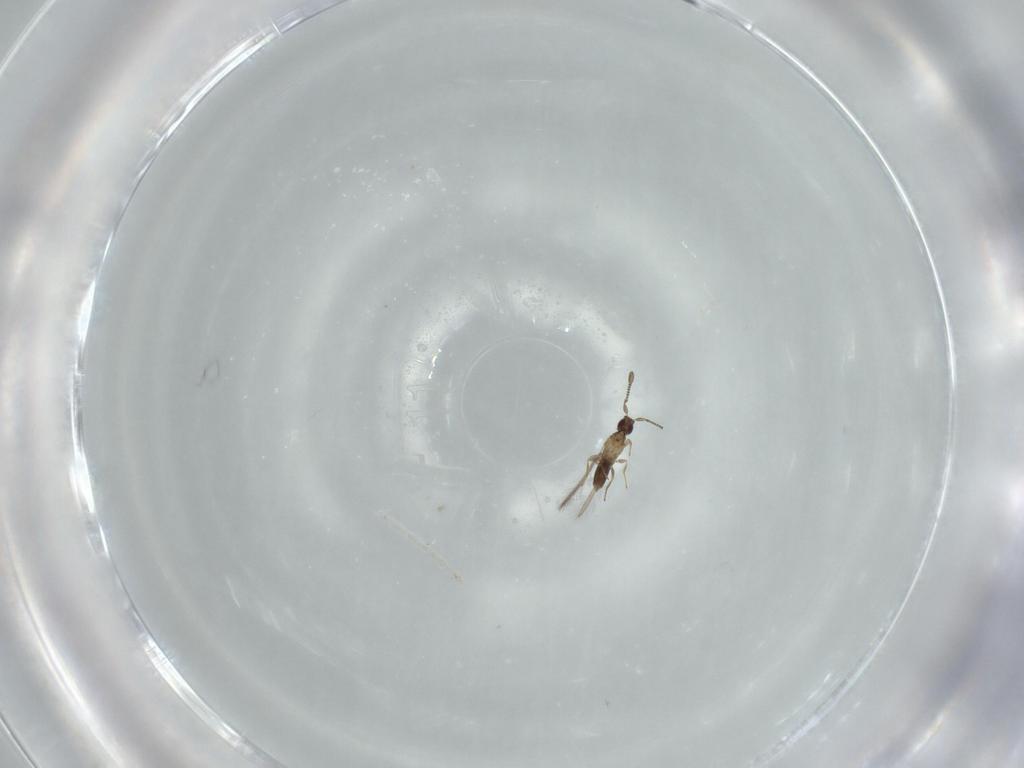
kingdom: Animalia
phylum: Arthropoda
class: Insecta
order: Hymenoptera
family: Mymaridae
